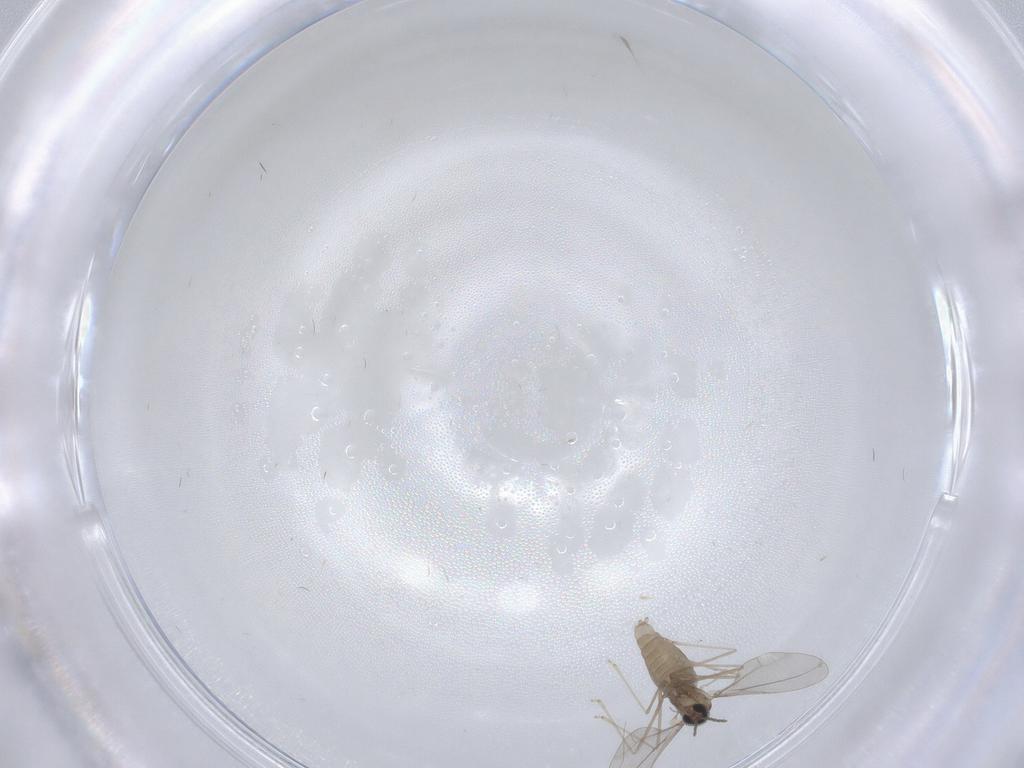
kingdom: Animalia
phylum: Arthropoda
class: Insecta
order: Diptera
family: Cecidomyiidae
